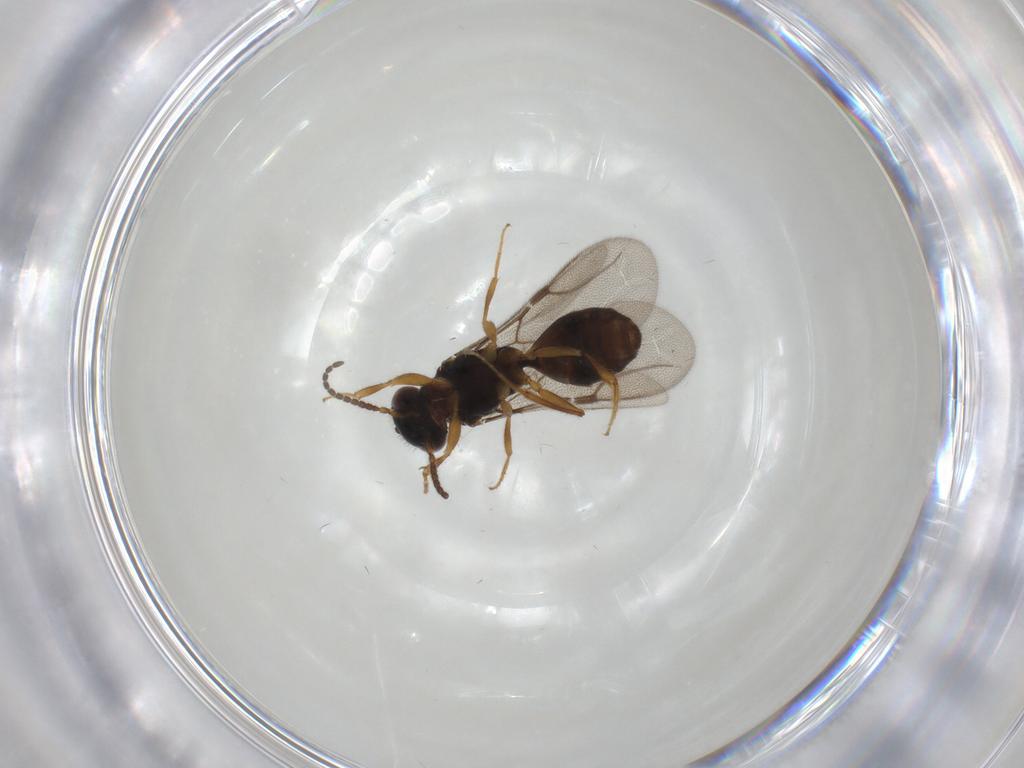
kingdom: Animalia
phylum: Arthropoda
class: Insecta
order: Hymenoptera
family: Bethylidae
